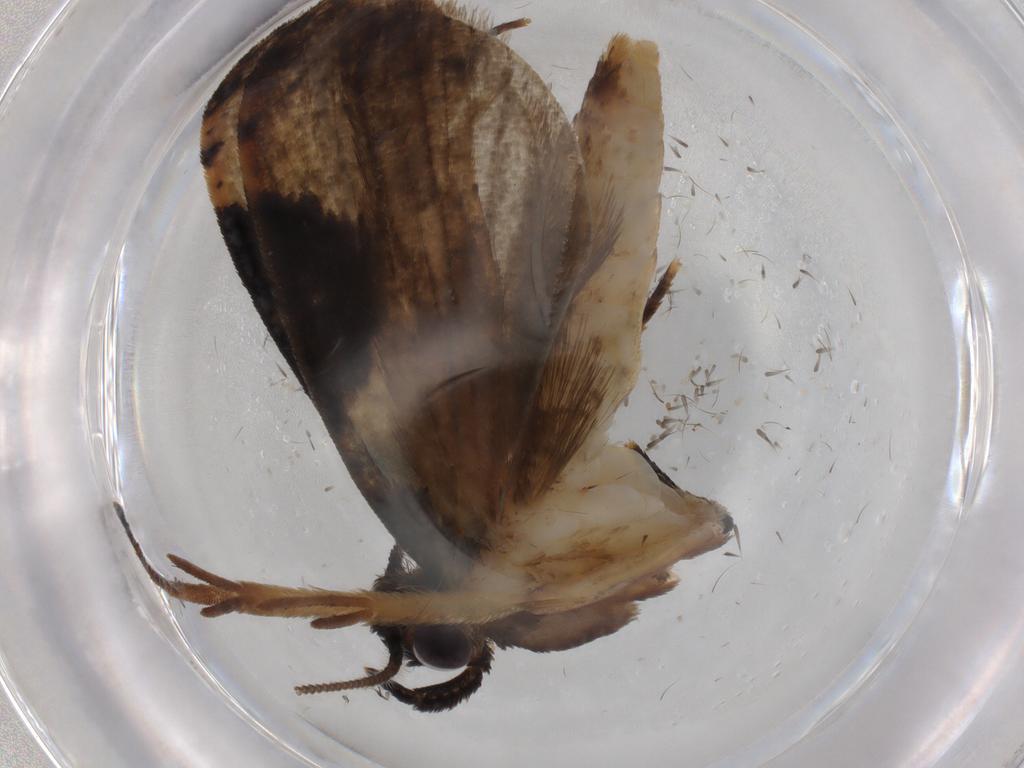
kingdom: Animalia
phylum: Arthropoda
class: Insecta
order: Lepidoptera
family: Tineidae
